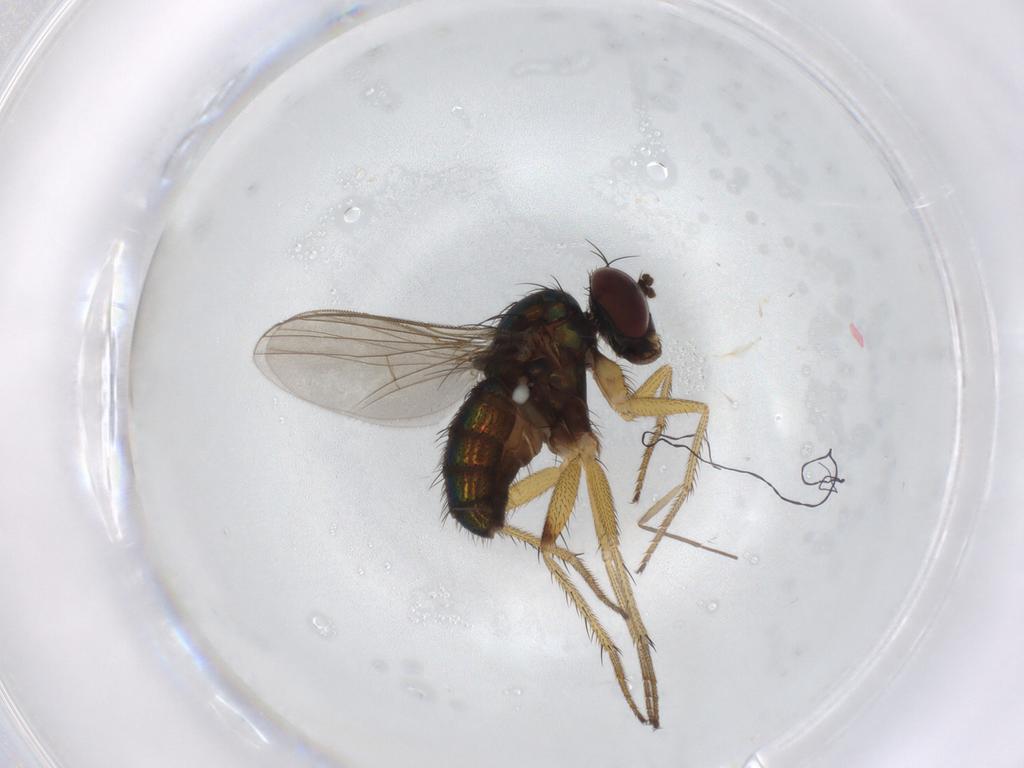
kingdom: Animalia
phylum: Arthropoda
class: Insecta
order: Diptera
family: Dolichopodidae
